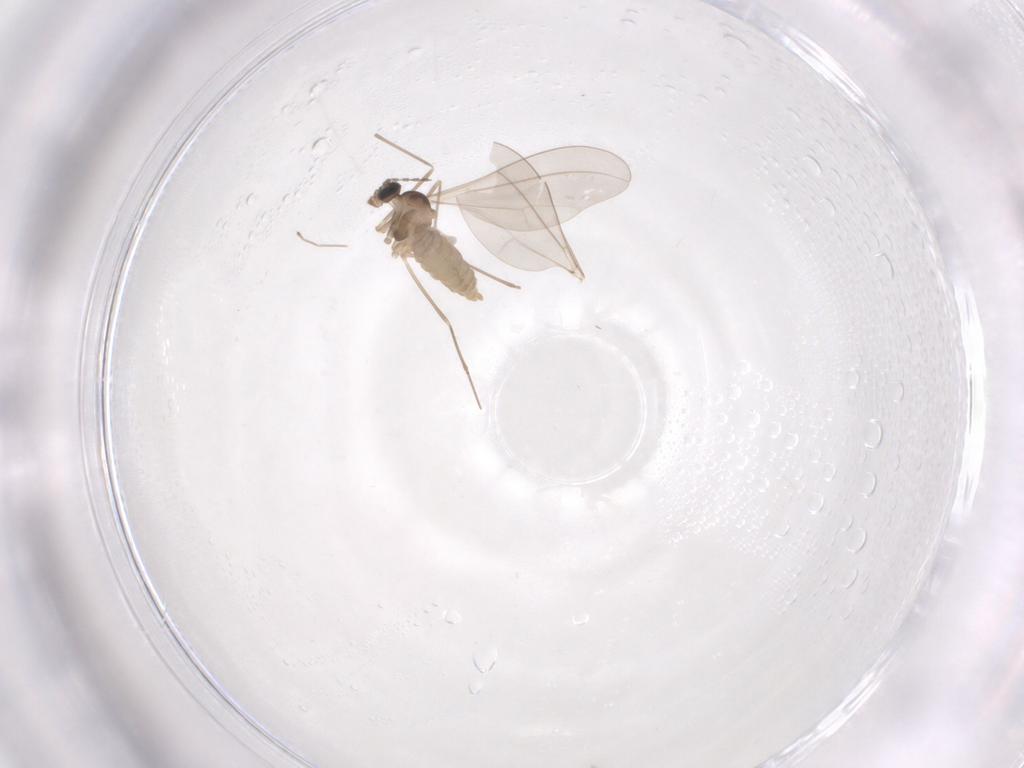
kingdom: Animalia
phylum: Arthropoda
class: Insecta
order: Diptera
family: Cecidomyiidae
